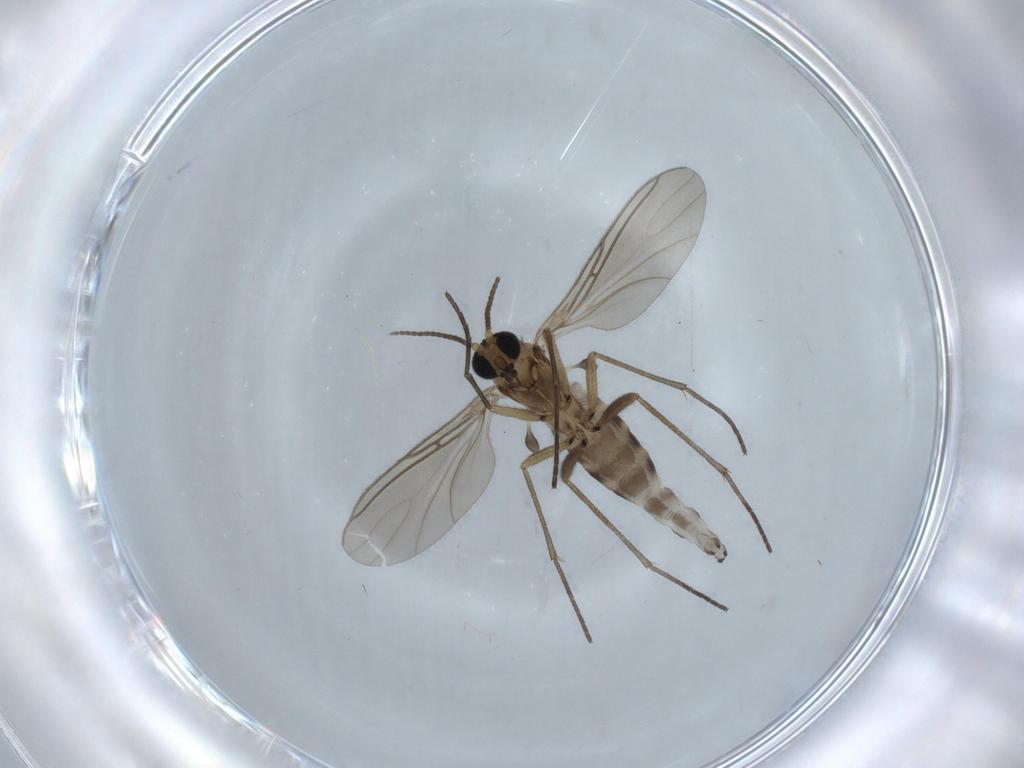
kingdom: Animalia
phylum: Arthropoda
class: Insecta
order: Diptera
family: Sciaridae
